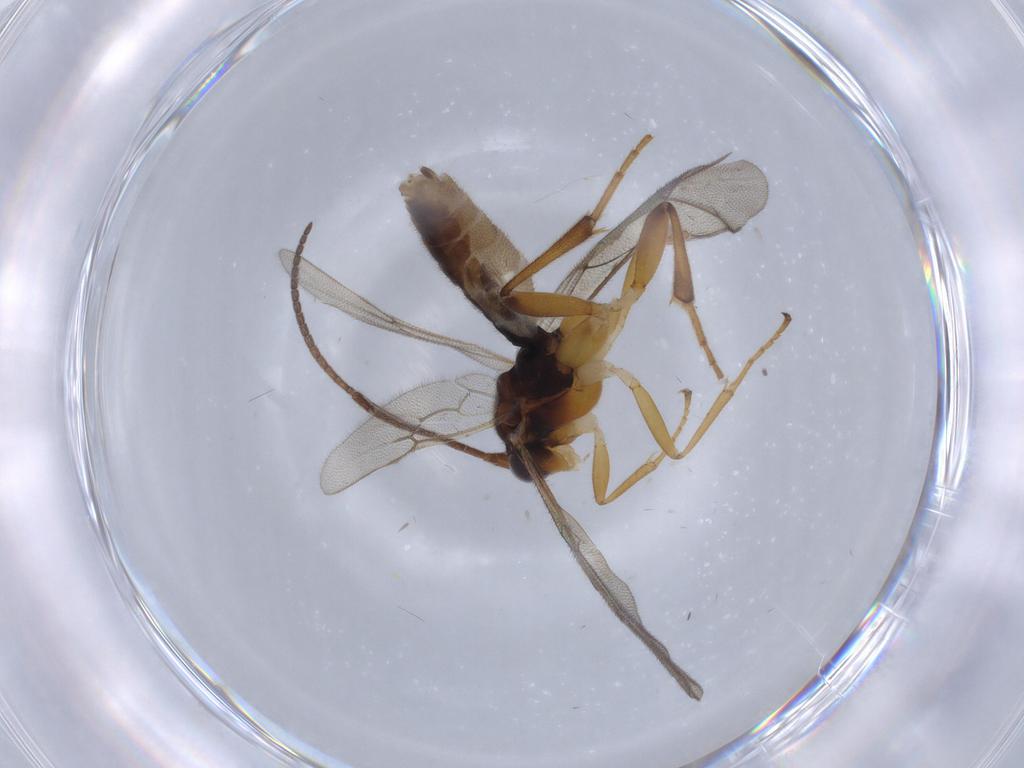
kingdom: Animalia
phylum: Arthropoda
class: Insecta
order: Hymenoptera
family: Ichneumonidae
